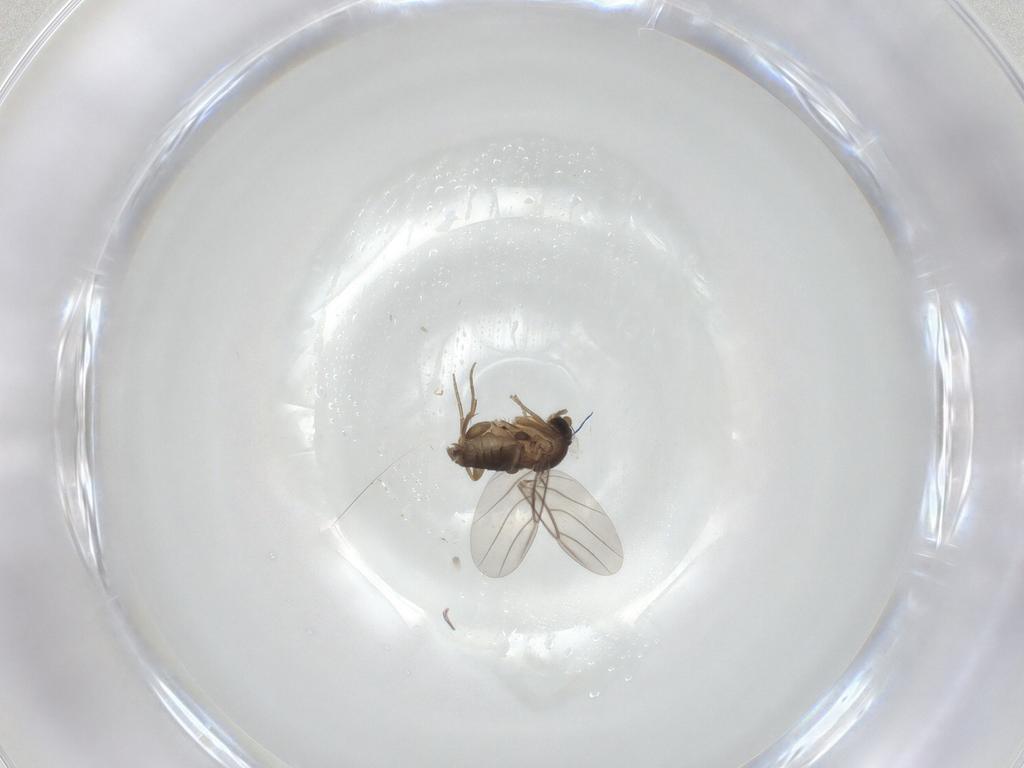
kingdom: Animalia
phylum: Arthropoda
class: Insecta
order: Diptera
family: Phoridae
